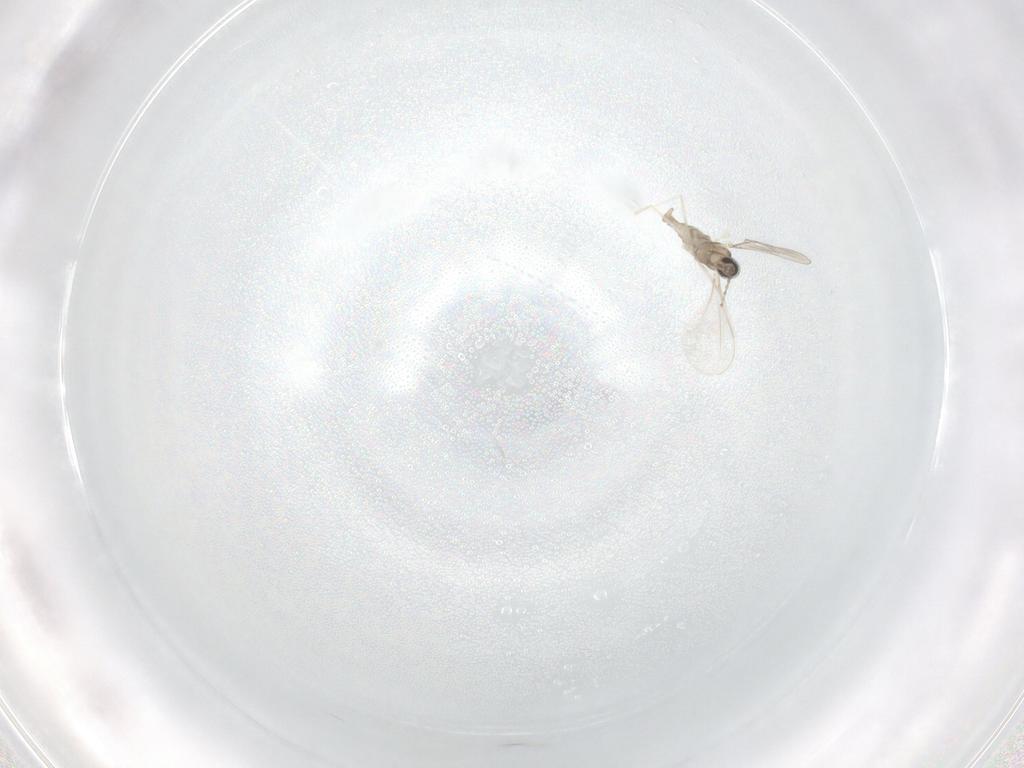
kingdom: Animalia
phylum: Arthropoda
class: Insecta
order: Diptera
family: Cecidomyiidae
